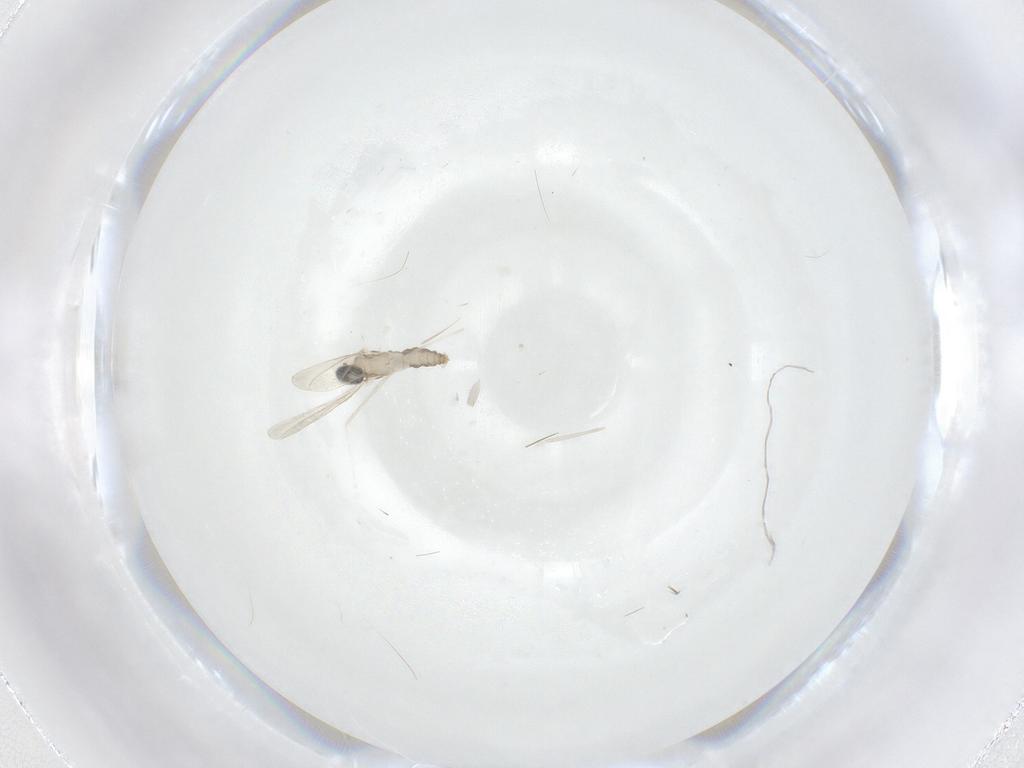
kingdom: Animalia
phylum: Arthropoda
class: Insecta
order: Diptera
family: Cecidomyiidae
